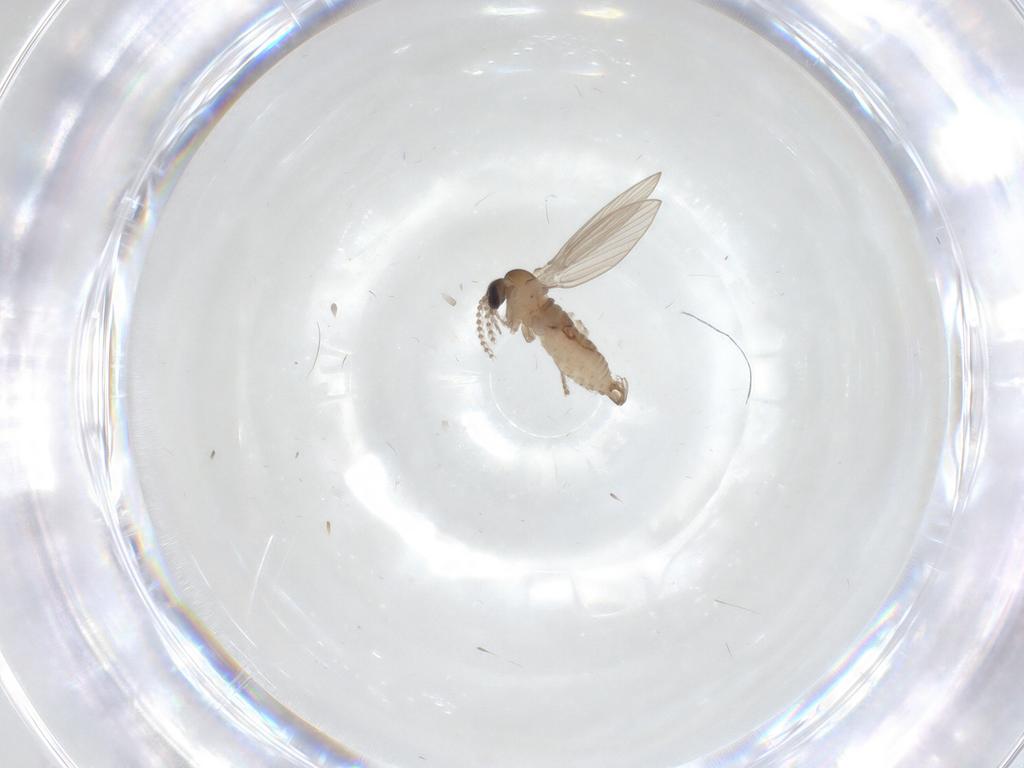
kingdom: Animalia
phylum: Arthropoda
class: Insecta
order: Diptera
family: Psychodidae
